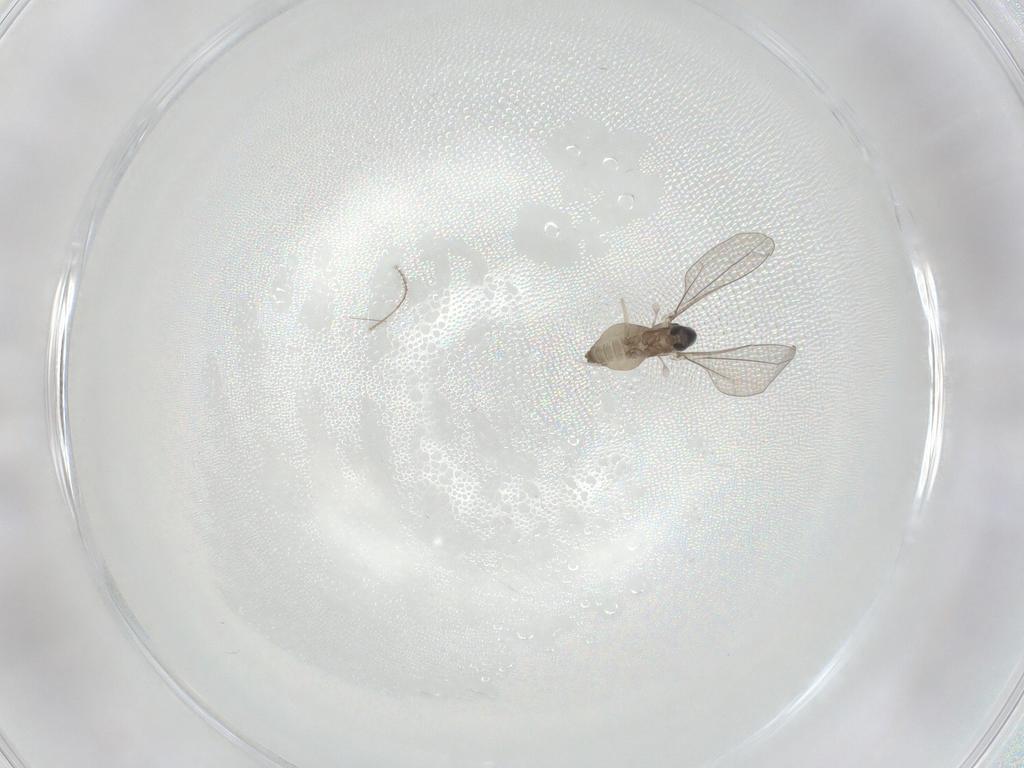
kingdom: Animalia
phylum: Arthropoda
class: Insecta
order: Diptera
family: Cecidomyiidae
